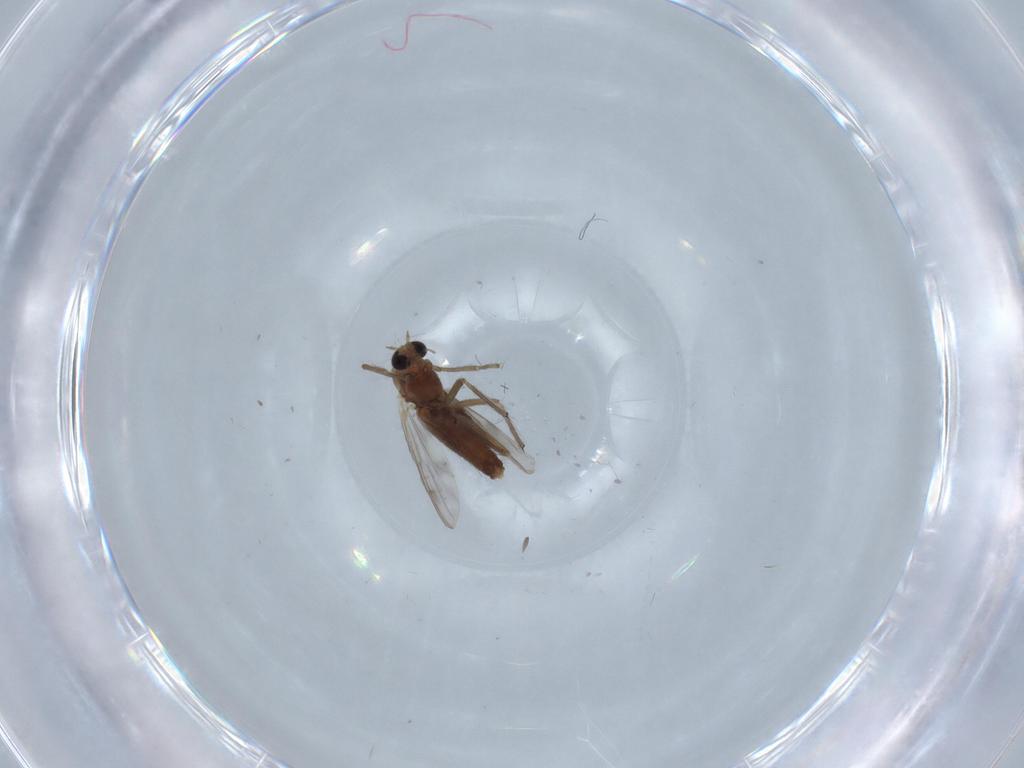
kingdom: Animalia
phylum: Arthropoda
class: Insecta
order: Diptera
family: Chironomidae
